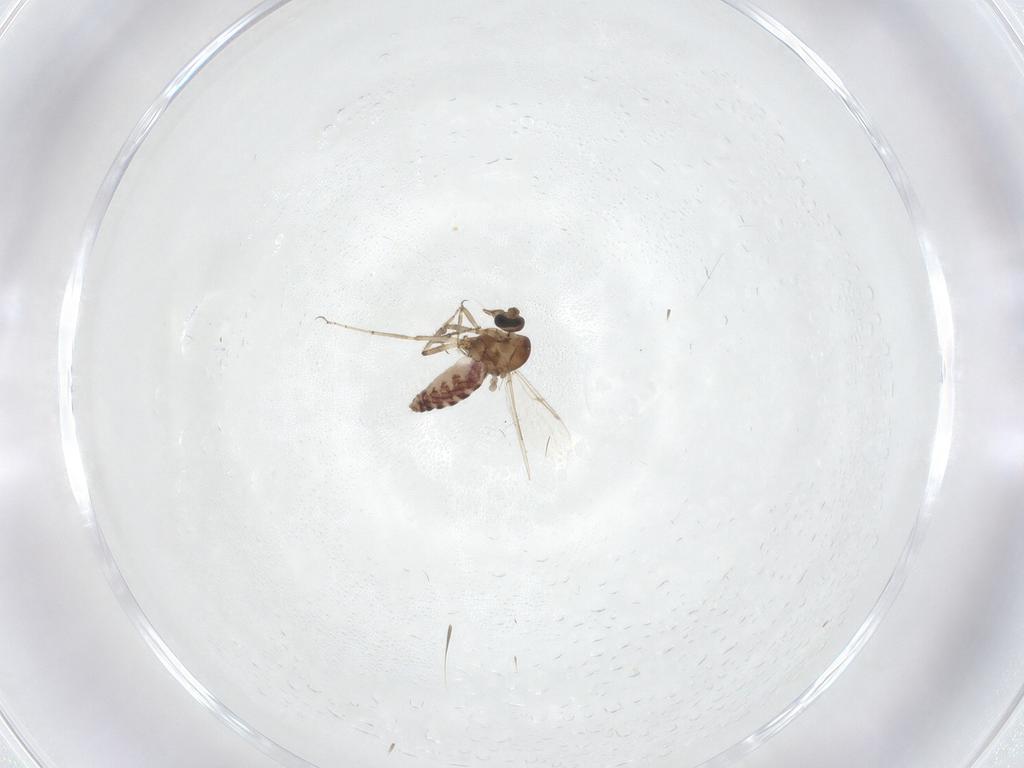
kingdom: Animalia
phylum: Arthropoda
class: Insecta
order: Diptera
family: Ceratopogonidae
